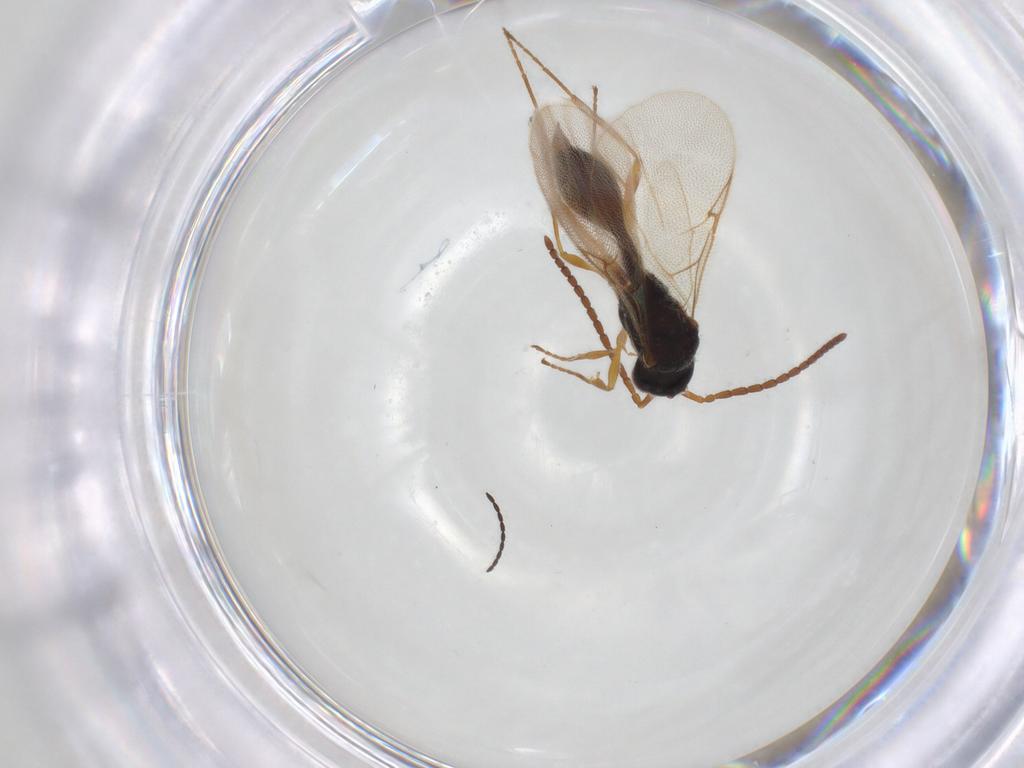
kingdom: Animalia
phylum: Arthropoda
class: Insecta
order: Hymenoptera
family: Diapriidae
